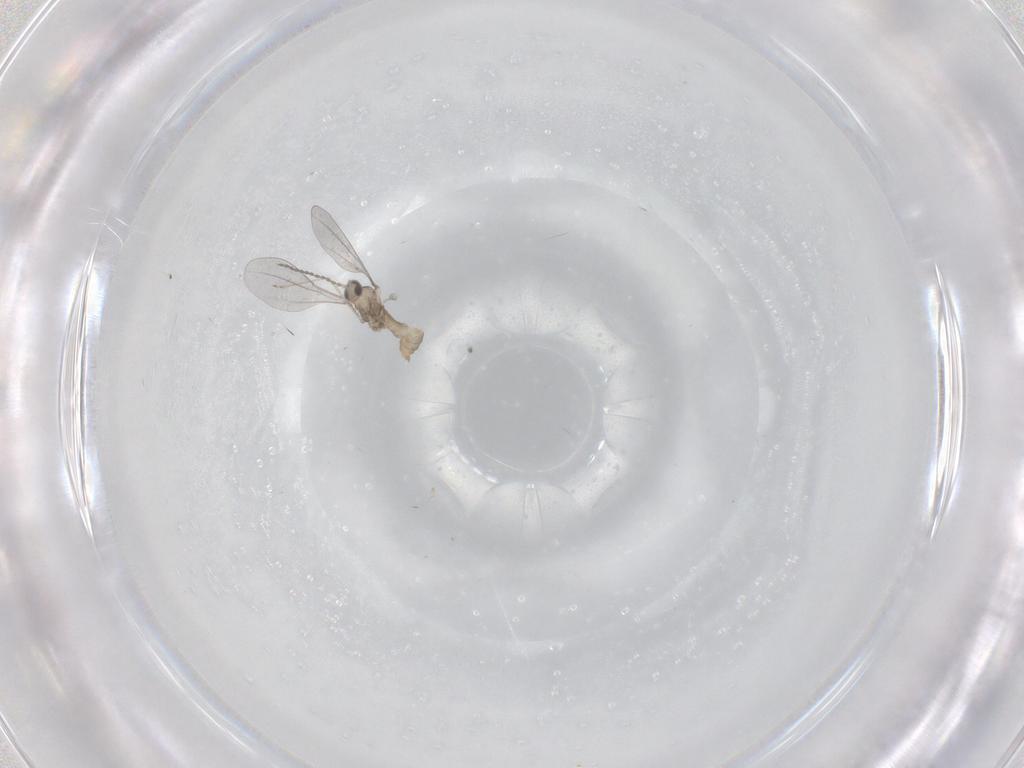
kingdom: Animalia
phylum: Arthropoda
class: Insecta
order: Diptera
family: Cecidomyiidae
